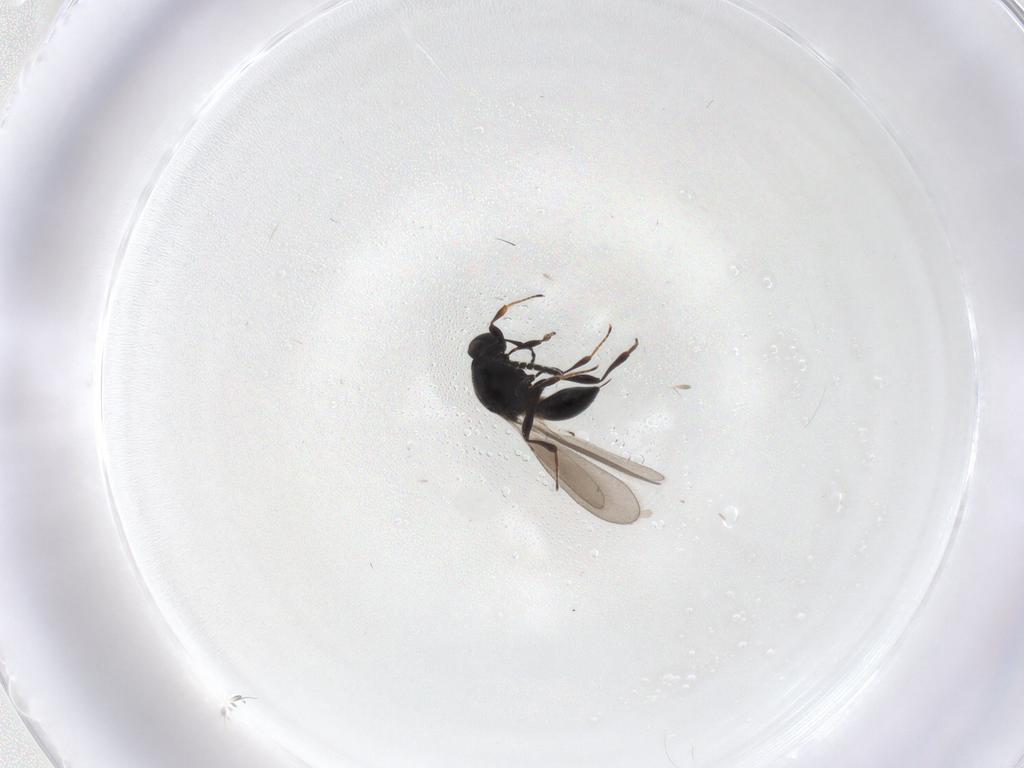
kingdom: Animalia
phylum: Arthropoda
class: Insecta
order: Hymenoptera
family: Platygastridae
